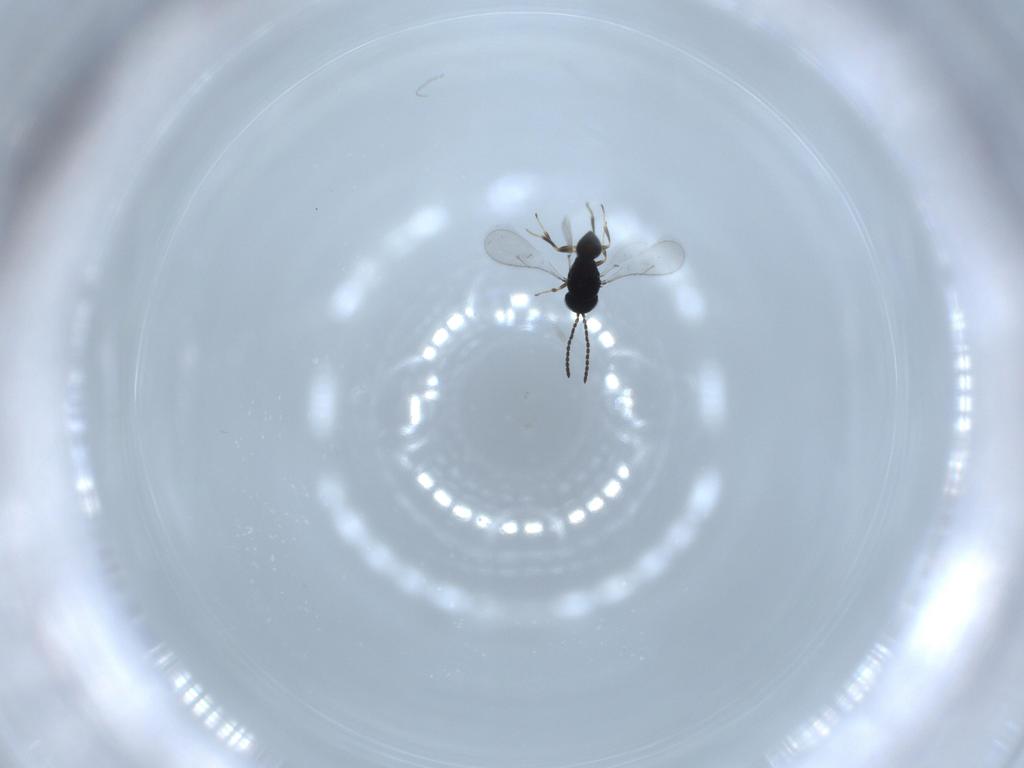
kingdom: Animalia
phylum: Arthropoda
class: Insecta
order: Hymenoptera
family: Scelionidae
